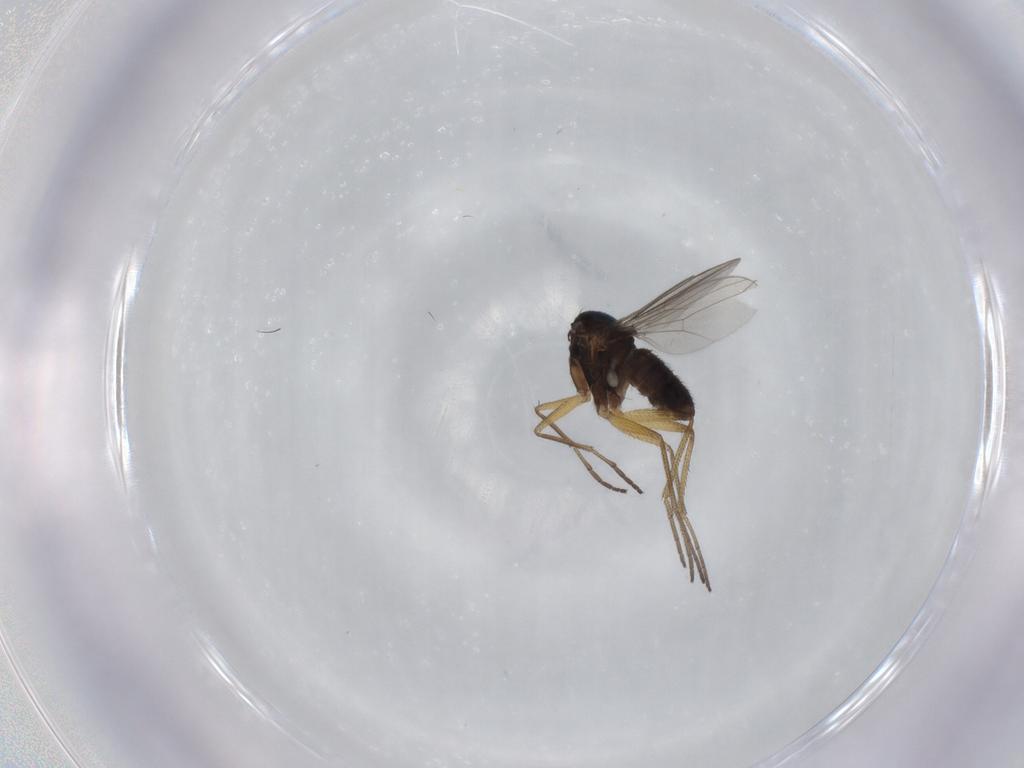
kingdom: Animalia
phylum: Arthropoda
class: Insecta
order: Diptera
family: Dolichopodidae
